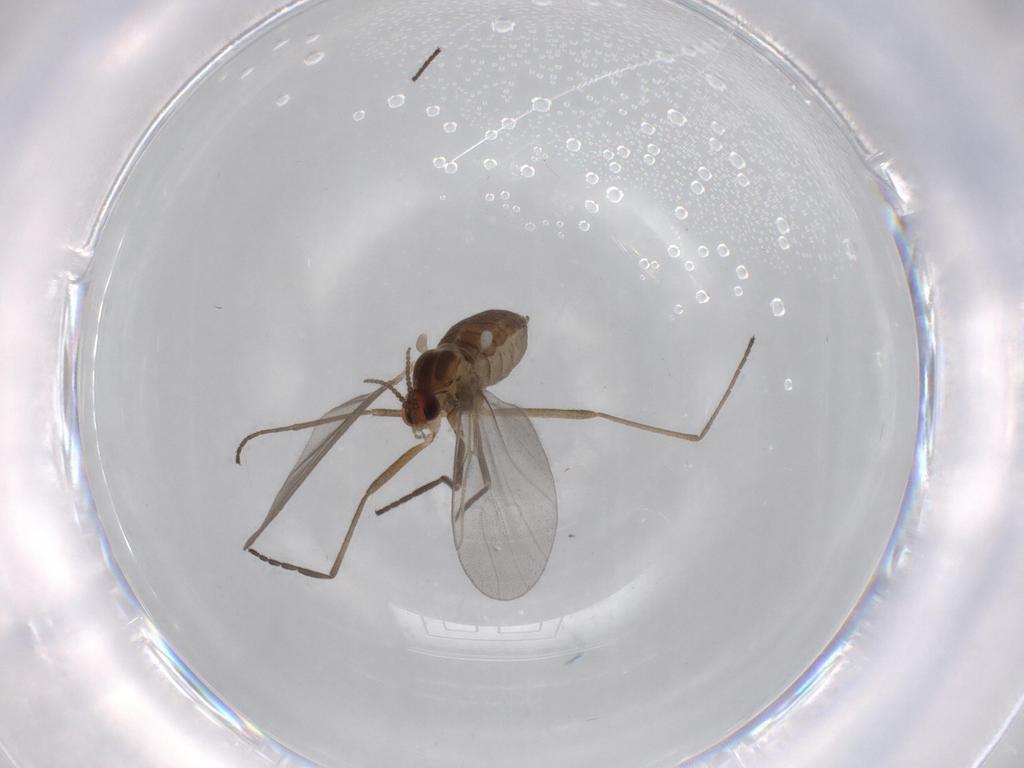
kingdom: Animalia
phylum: Arthropoda
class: Insecta
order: Diptera
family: Cecidomyiidae
